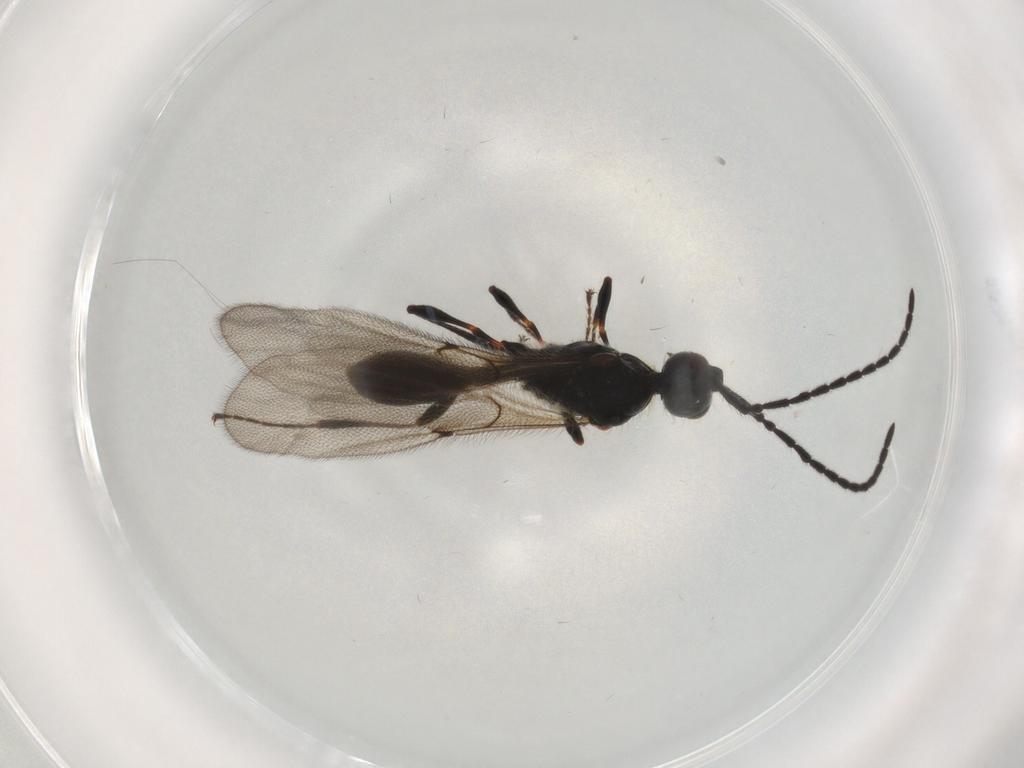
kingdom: Animalia
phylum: Arthropoda
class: Insecta
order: Hymenoptera
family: Diapriidae
